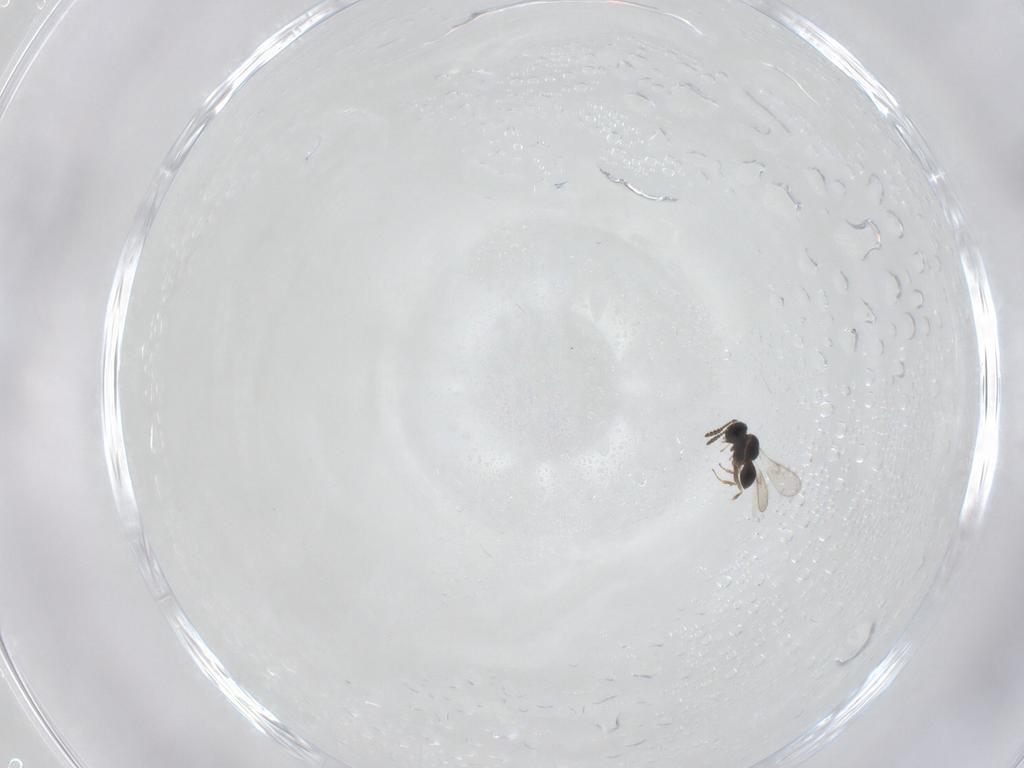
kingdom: Animalia
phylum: Arthropoda
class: Insecta
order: Hymenoptera
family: Scelionidae
